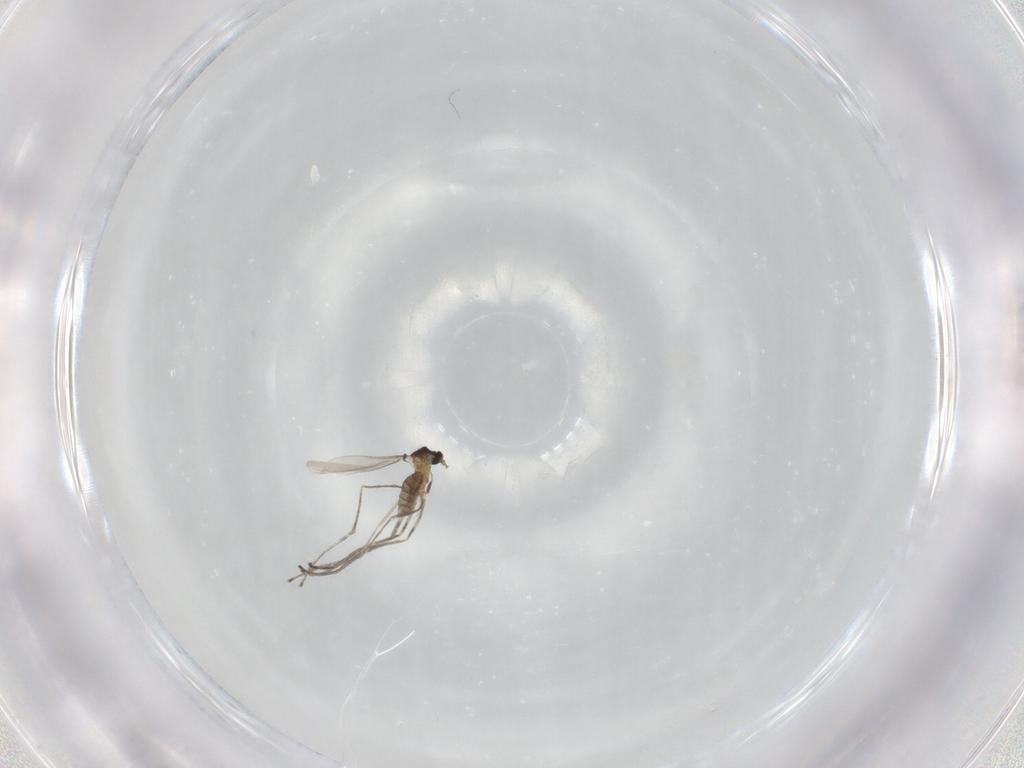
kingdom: Animalia
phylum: Arthropoda
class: Insecta
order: Diptera
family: Cecidomyiidae
